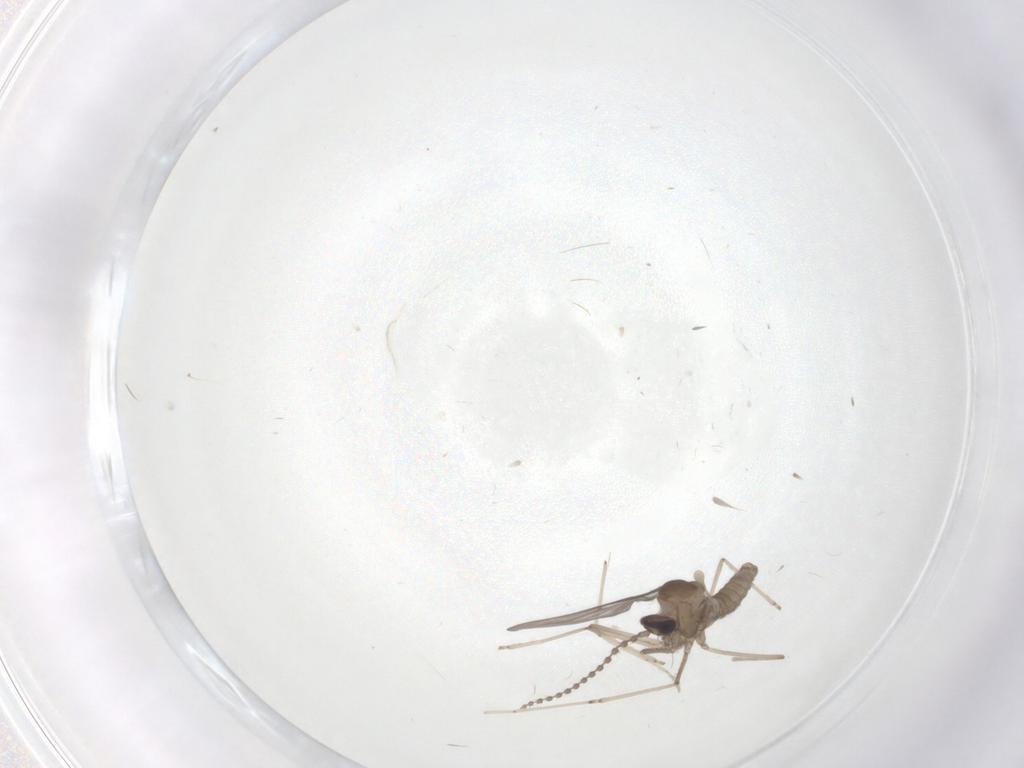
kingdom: Animalia
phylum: Arthropoda
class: Insecta
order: Diptera
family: Cecidomyiidae
